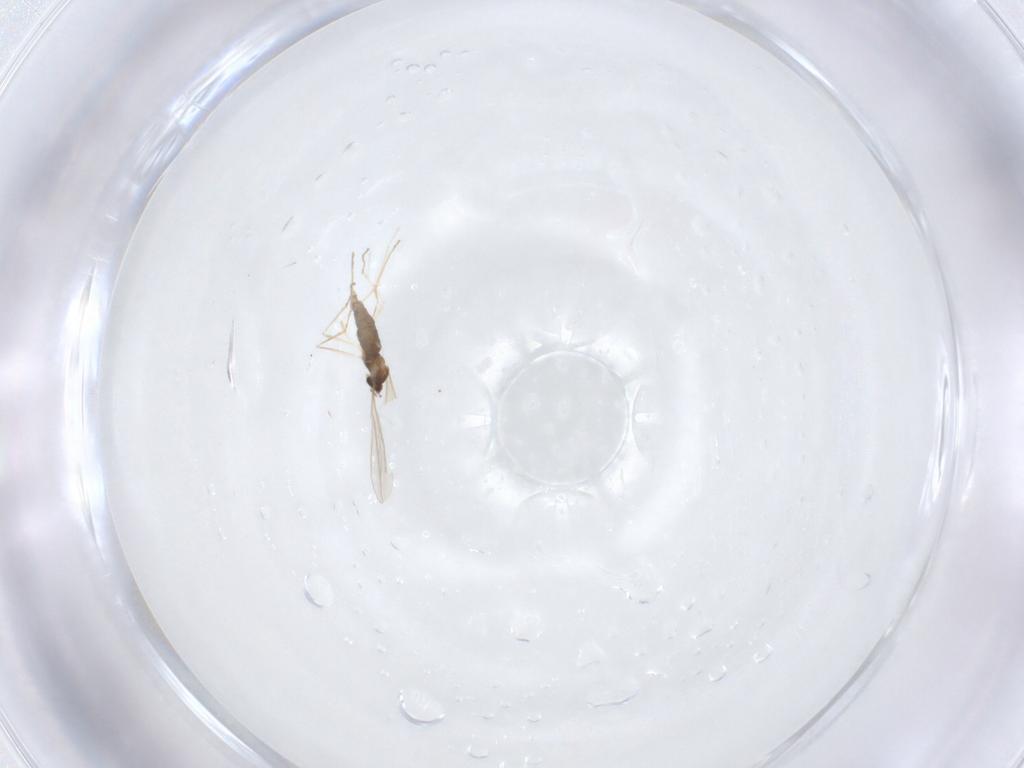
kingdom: Animalia
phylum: Arthropoda
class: Insecta
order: Diptera
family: Cecidomyiidae
